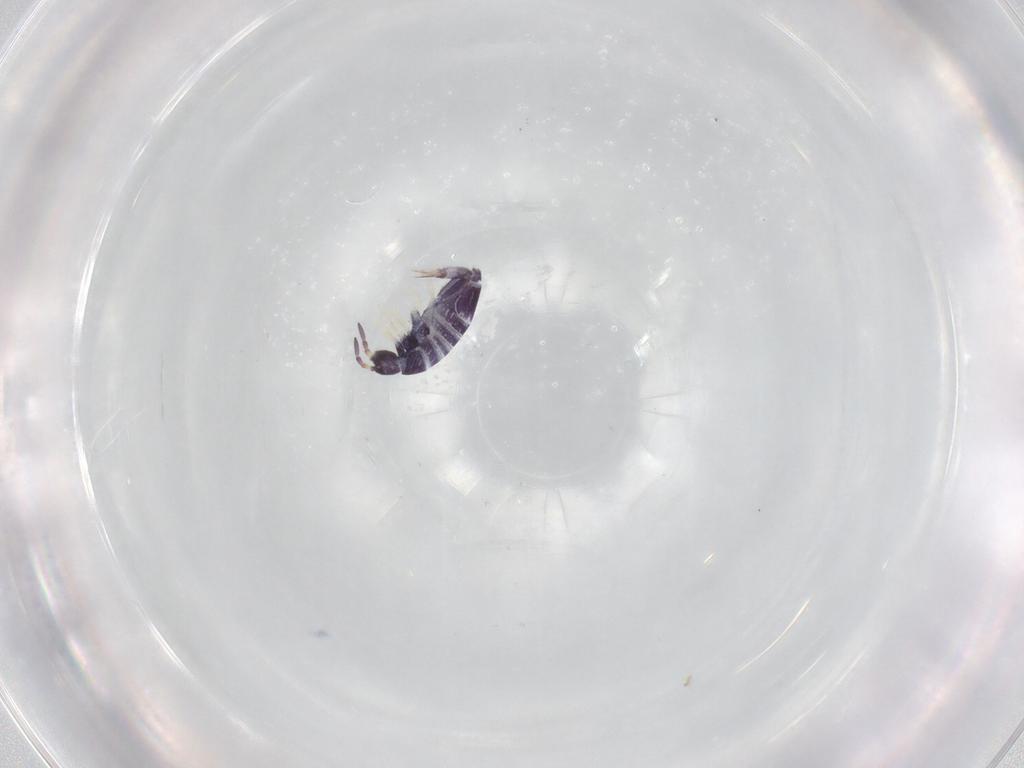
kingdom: Animalia
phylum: Arthropoda
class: Collembola
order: Entomobryomorpha
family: Entomobryidae
